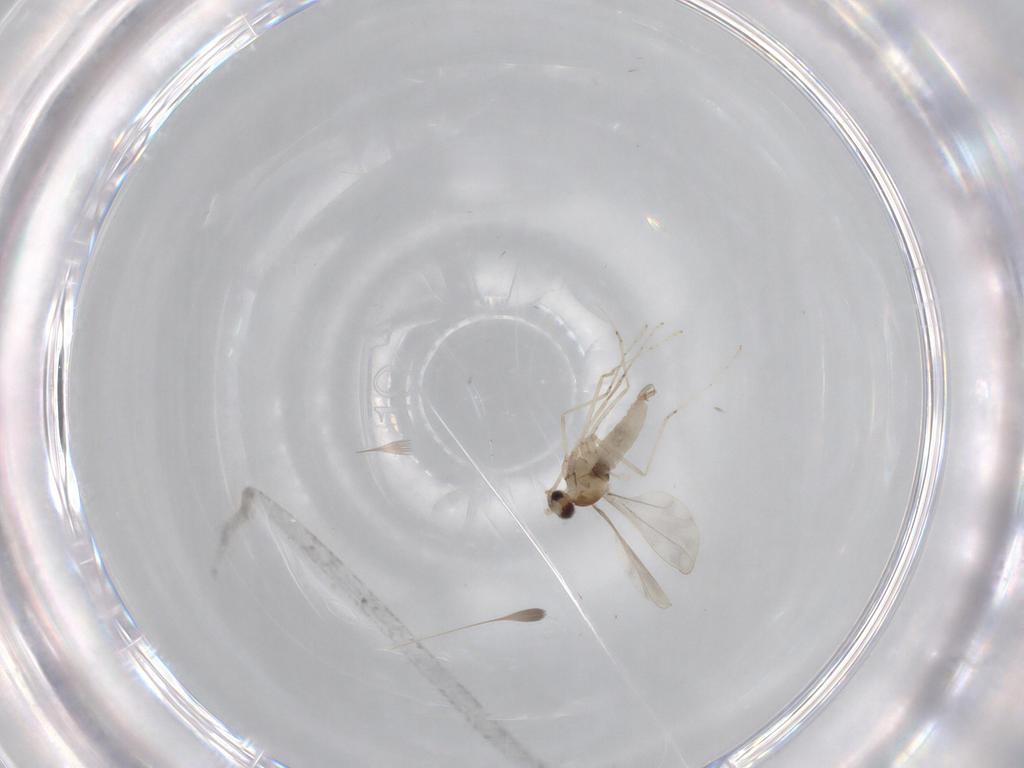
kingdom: Animalia
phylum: Arthropoda
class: Insecta
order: Diptera
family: Cecidomyiidae
